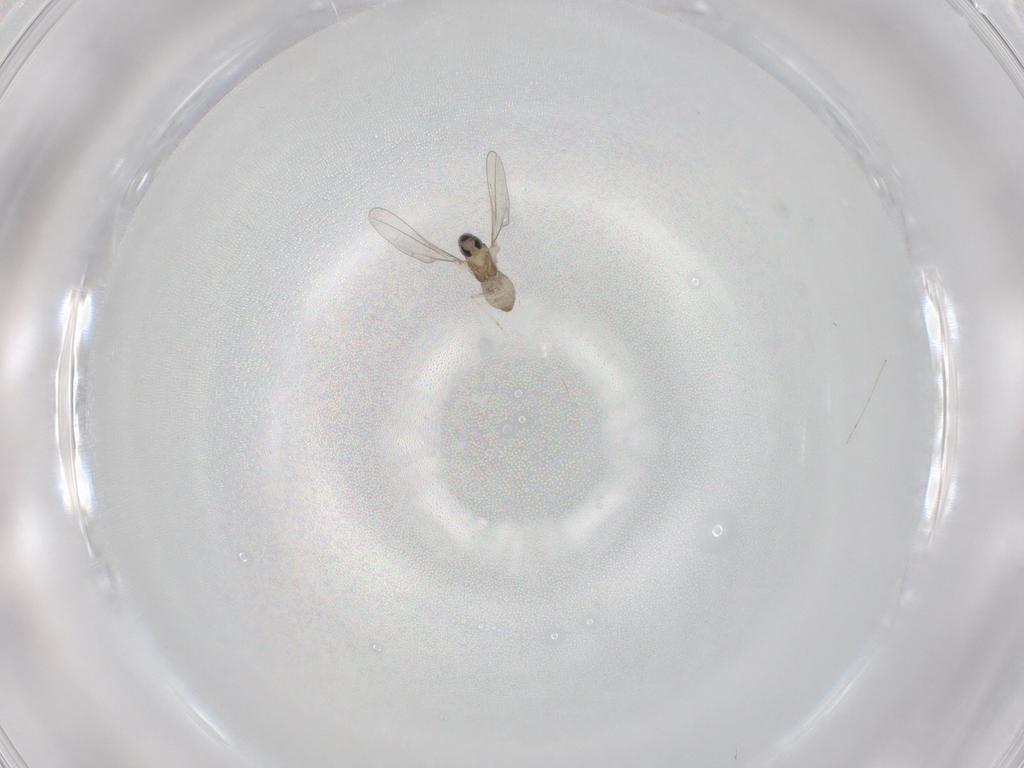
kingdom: Animalia
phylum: Arthropoda
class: Insecta
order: Diptera
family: Cecidomyiidae
